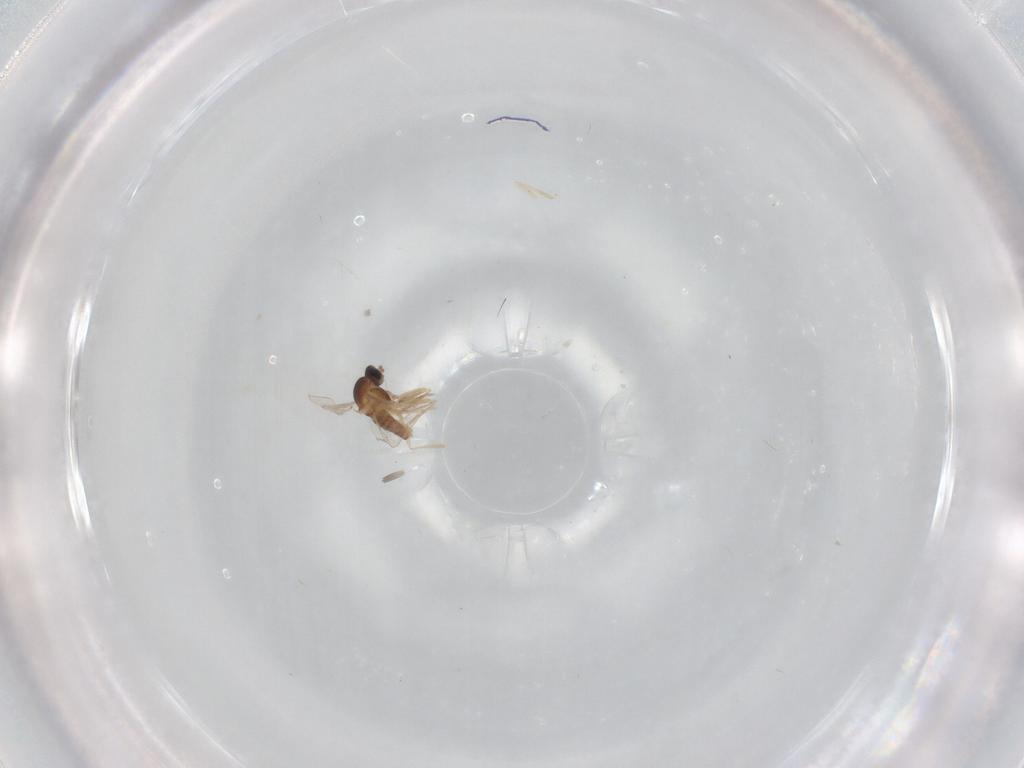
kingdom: Animalia
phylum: Arthropoda
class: Insecta
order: Diptera
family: Cecidomyiidae
